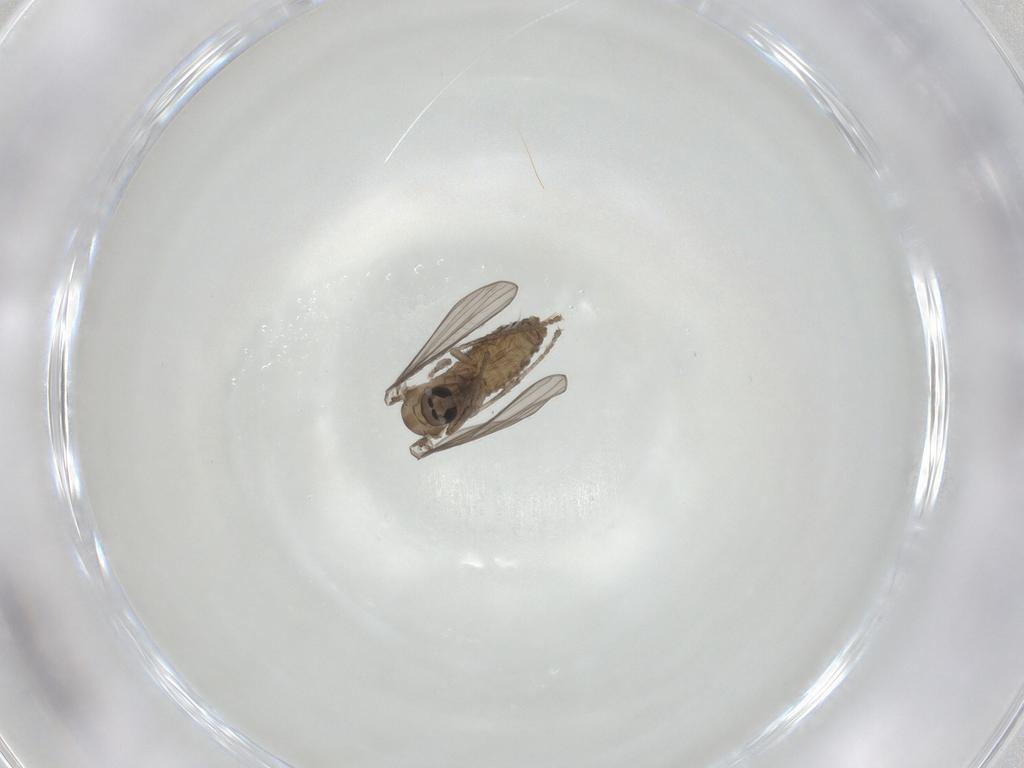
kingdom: Animalia
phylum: Arthropoda
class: Insecta
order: Diptera
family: Psychodidae
